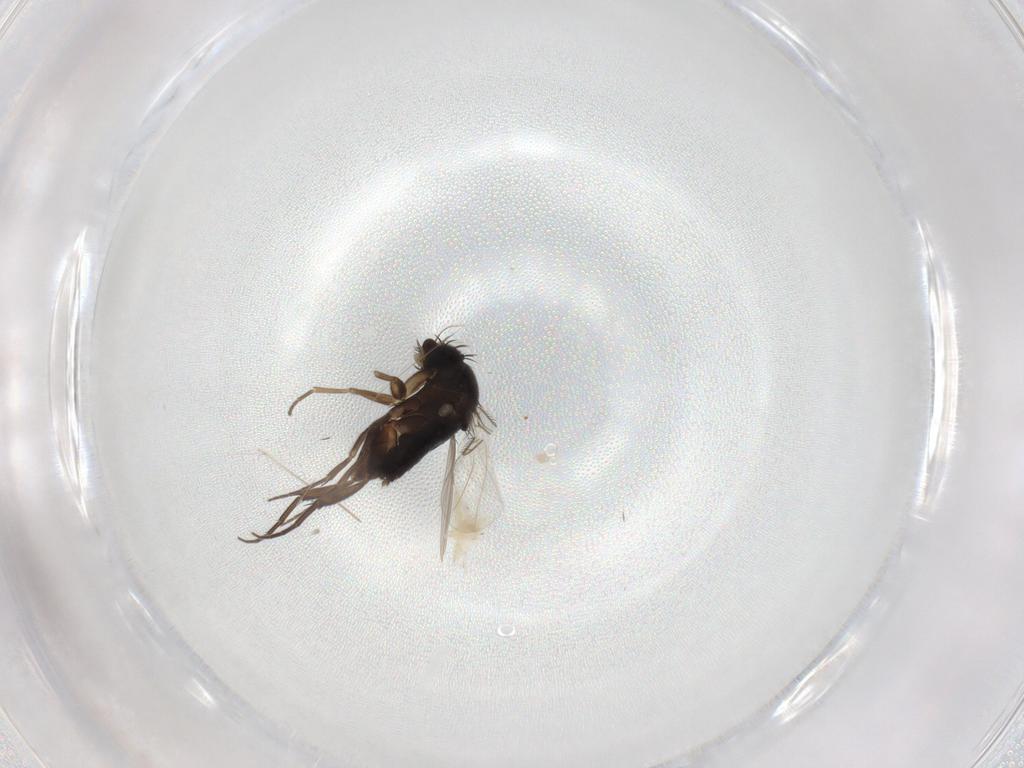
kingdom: Animalia
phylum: Arthropoda
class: Insecta
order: Diptera
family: Phoridae
